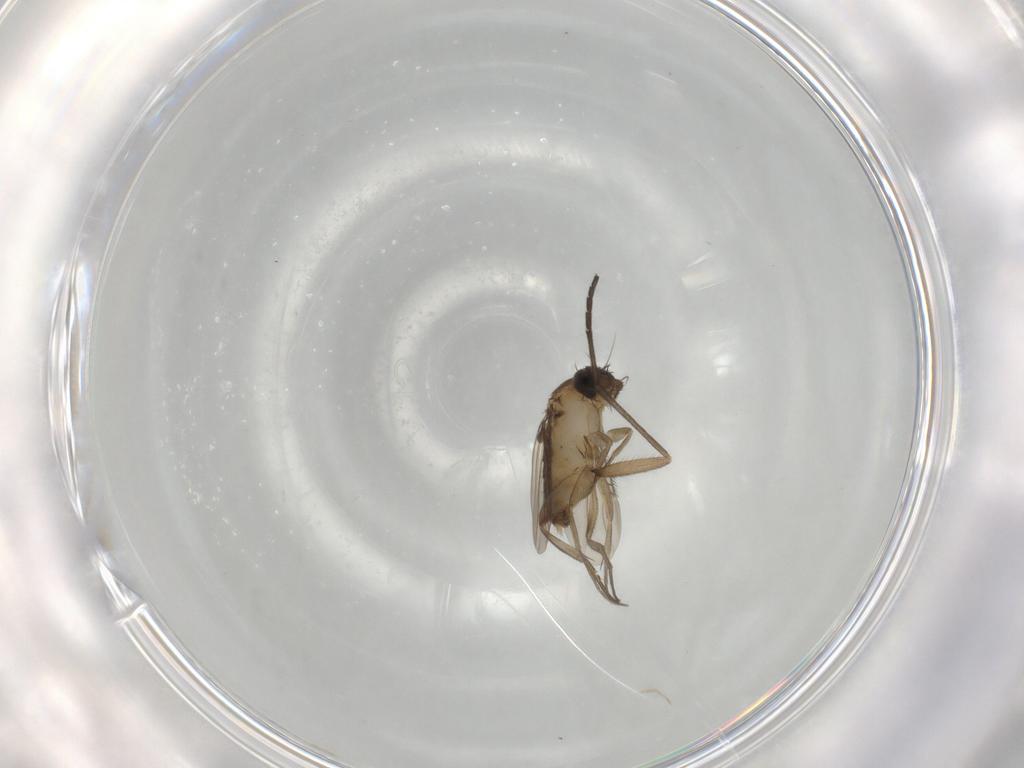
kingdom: Animalia
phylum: Arthropoda
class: Insecta
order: Diptera
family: Phoridae
